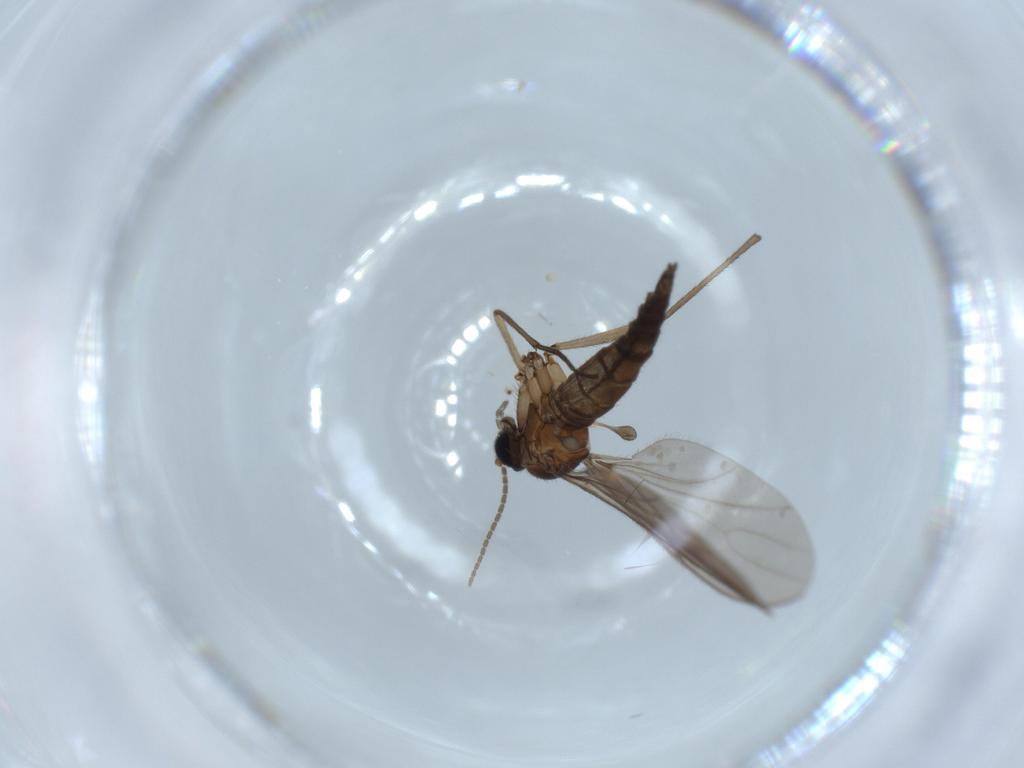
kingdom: Animalia
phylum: Arthropoda
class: Insecta
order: Diptera
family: Sciaridae
